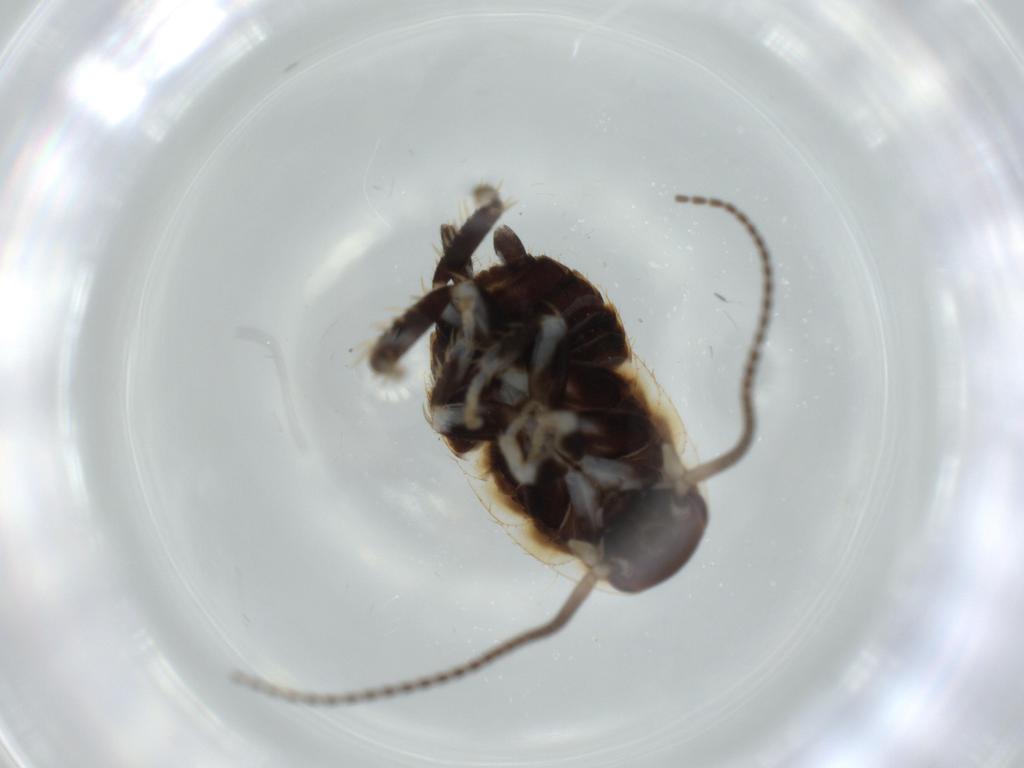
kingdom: Animalia
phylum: Arthropoda
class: Insecta
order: Blattodea
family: Ectobiidae
